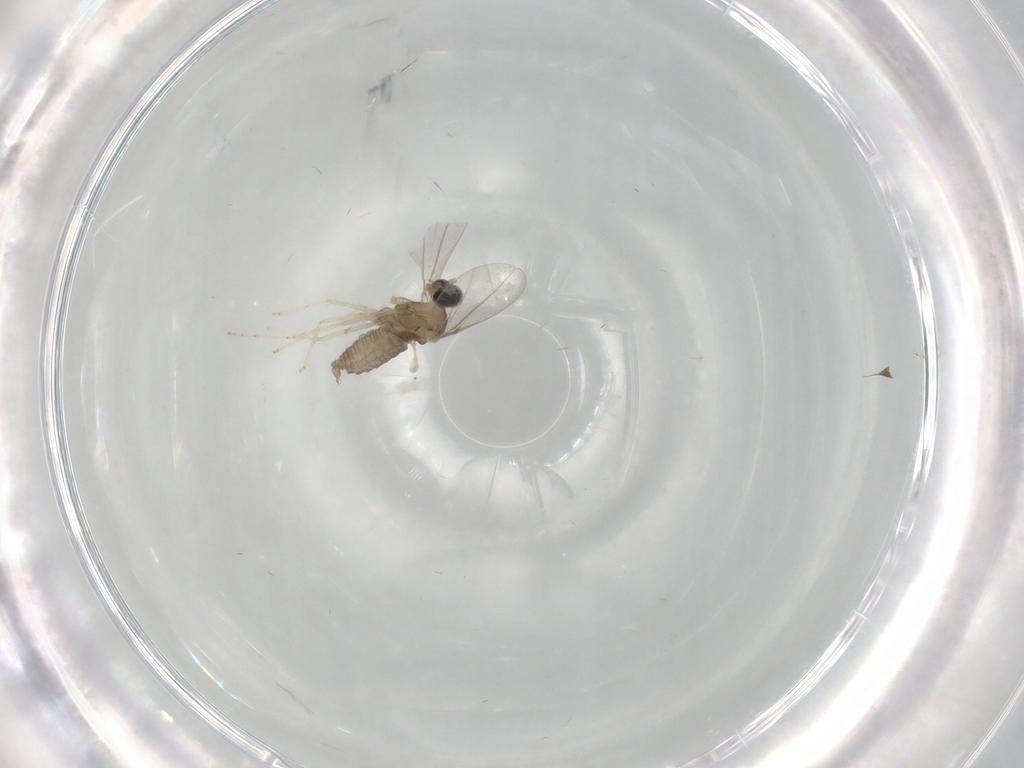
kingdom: Animalia
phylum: Arthropoda
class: Insecta
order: Diptera
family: Cecidomyiidae
